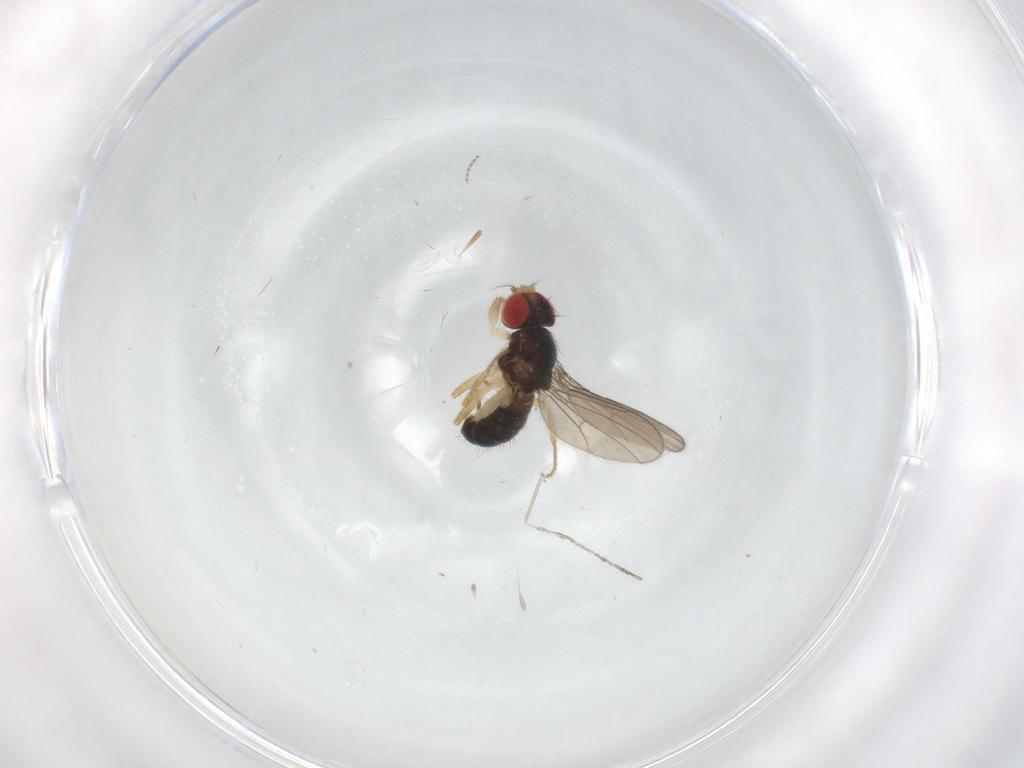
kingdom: Animalia
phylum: Arthropoda
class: Insecta
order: Diptera
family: Drosophilidae
